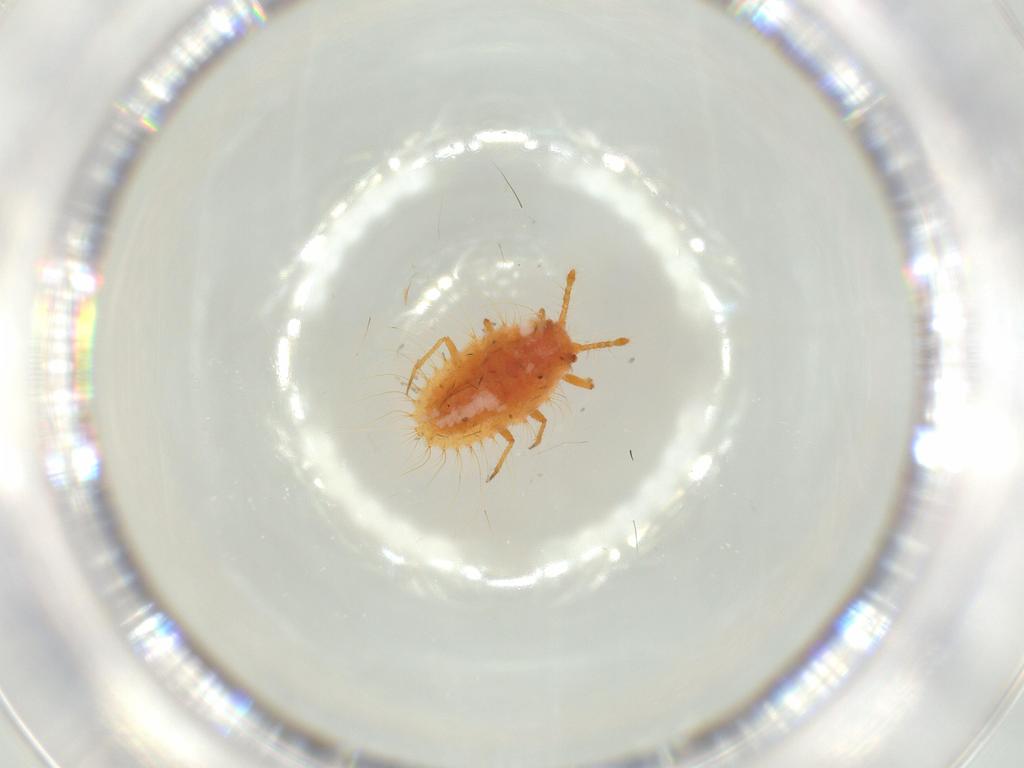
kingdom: Animalia
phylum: Arthropoda
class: Insecta
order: Hemiptera
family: Coccoidea_incertae_sedis
